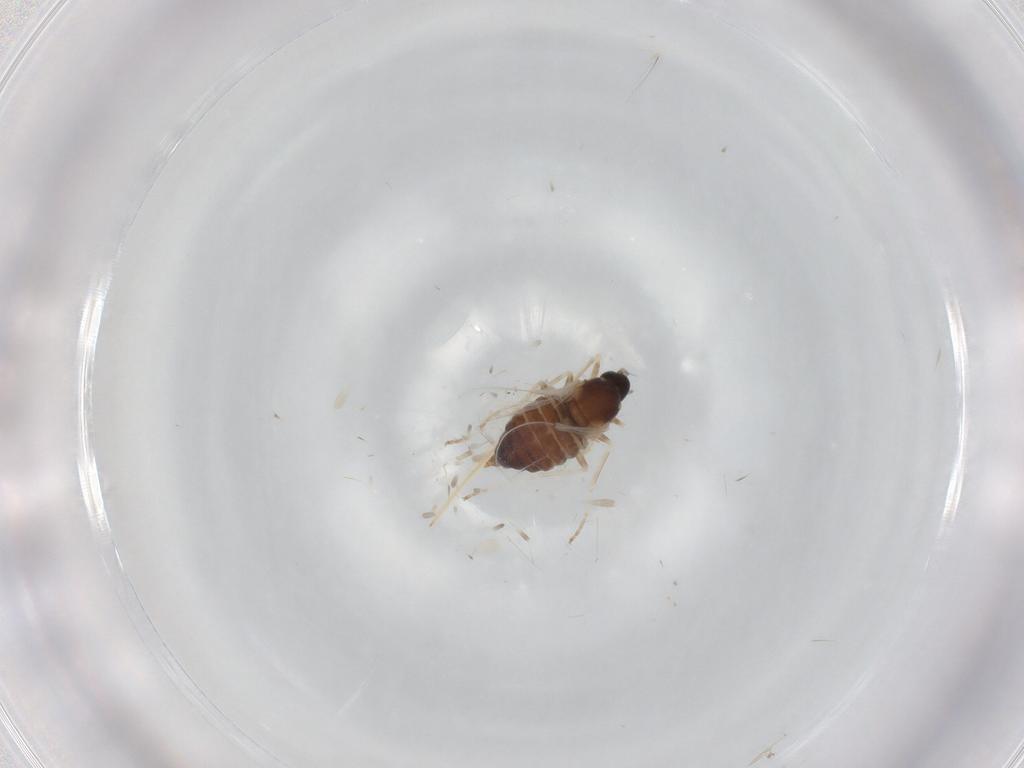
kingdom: Animalia
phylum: Arthropoda
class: Insecta
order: Diptera
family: Cecidomyiidae
